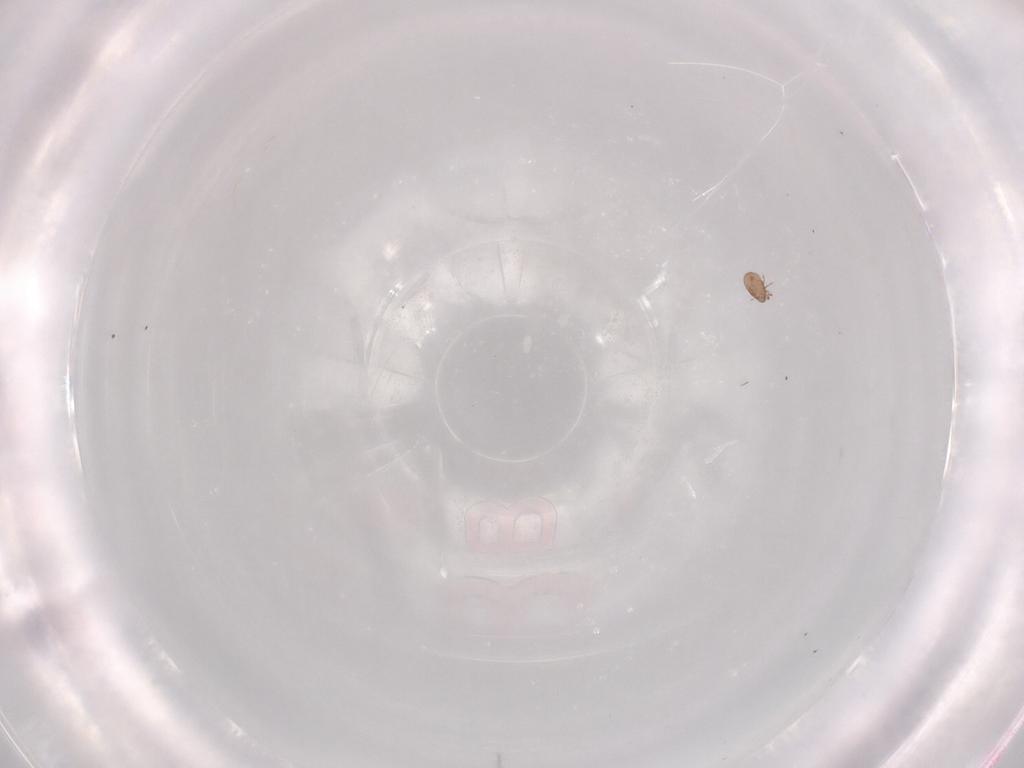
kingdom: Animalia
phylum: Arthropoda
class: Arachnida
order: Sarcoptiformes
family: Eremaeidae
